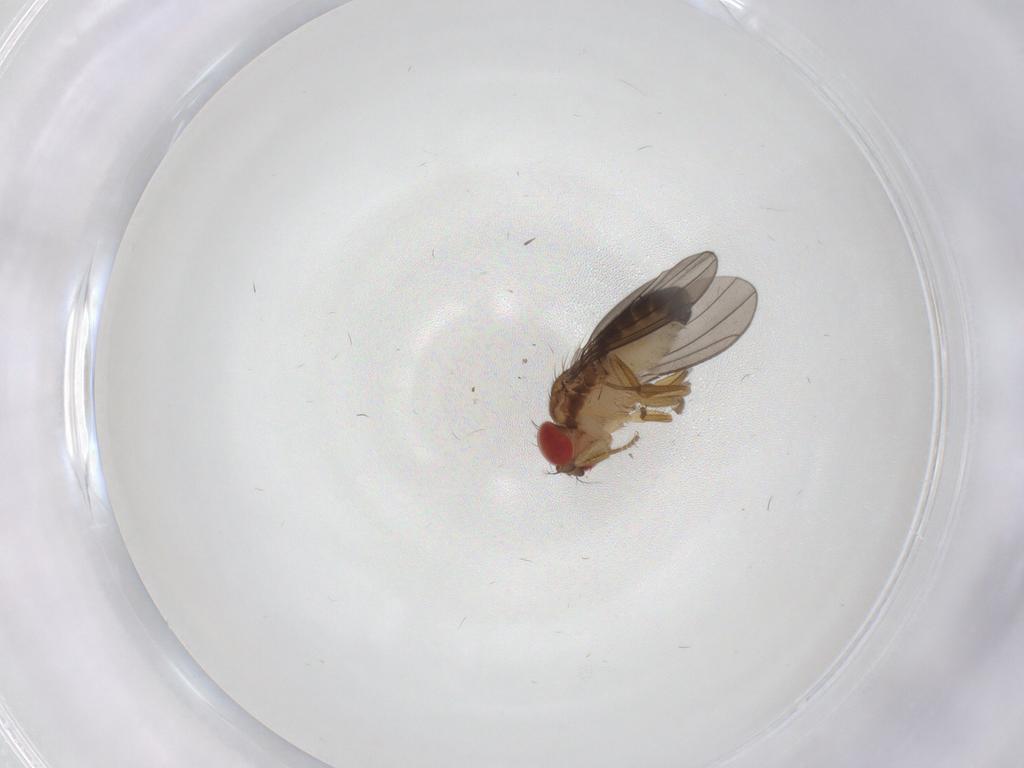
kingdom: Animalia
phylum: Arthropoda
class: Insecta
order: Diptera
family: Drosophilidae
